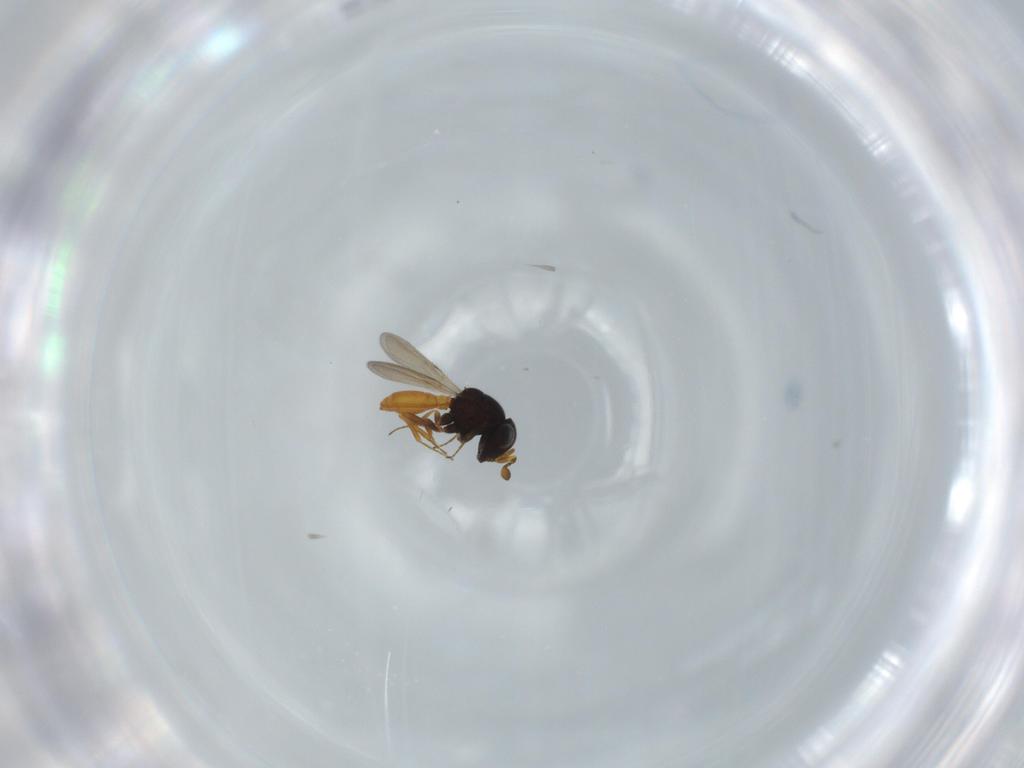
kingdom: Animalia
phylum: Arthropoda
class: Insecta
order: Hymenoptera
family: Scelionidae
